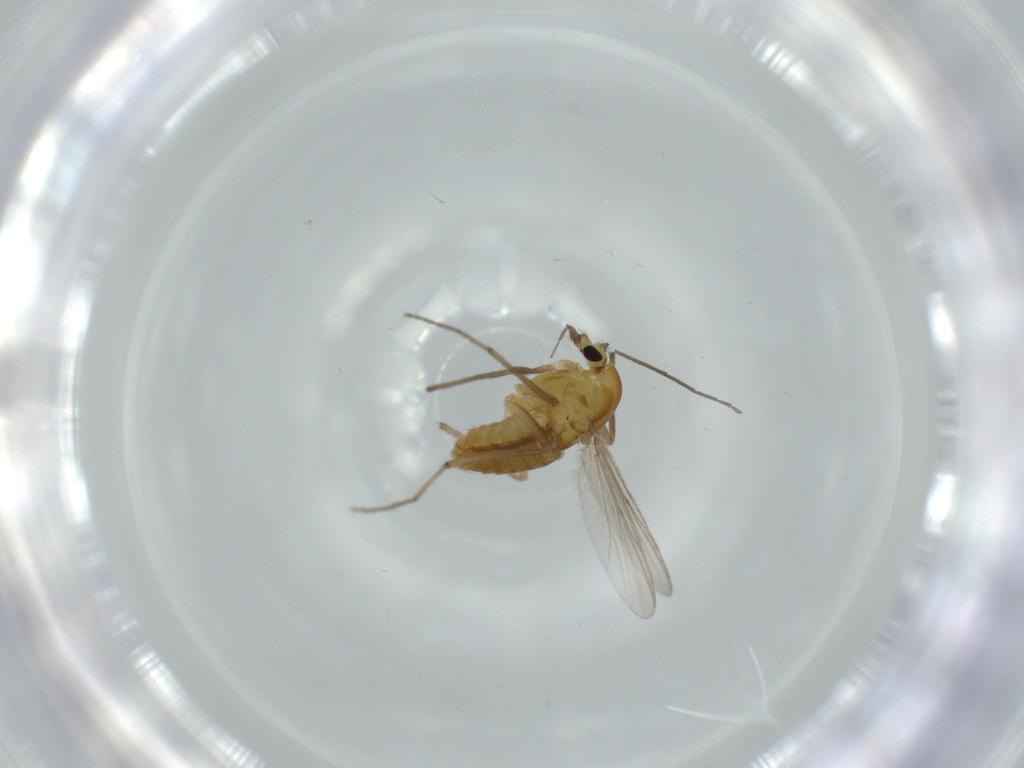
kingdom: Animalia
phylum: Arthropoda
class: Insecta
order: Diptera
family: Chironomidae
